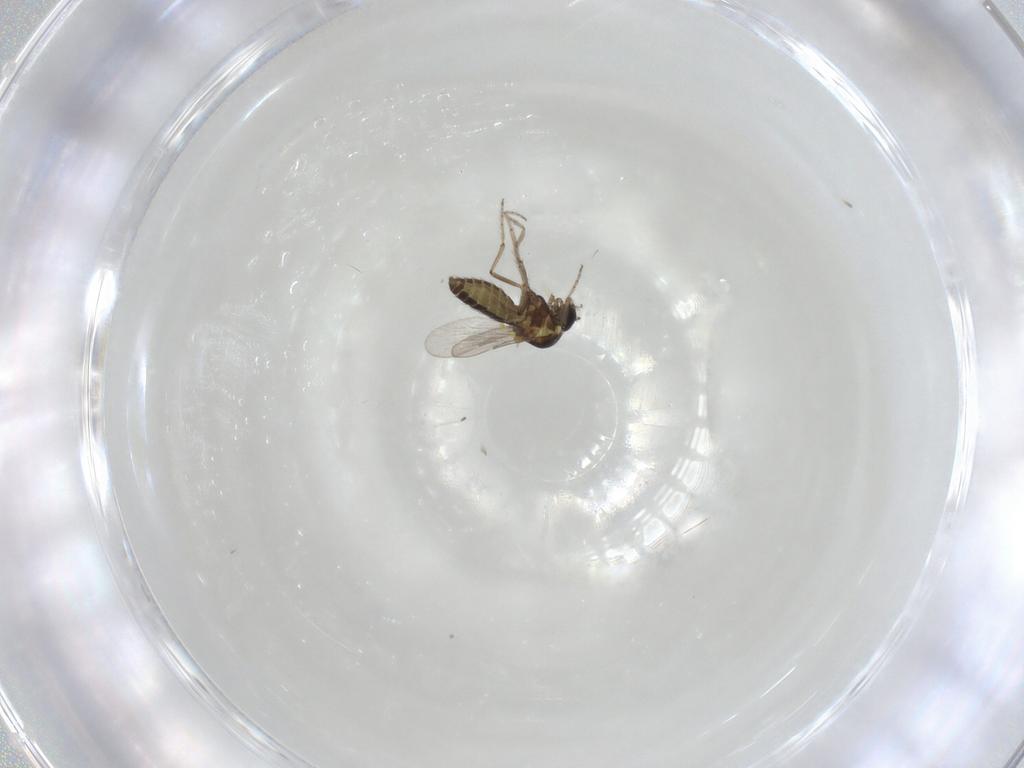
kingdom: Animalia
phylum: Arthropoda
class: Insecta
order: Diptera
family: Ceratopogonidae
